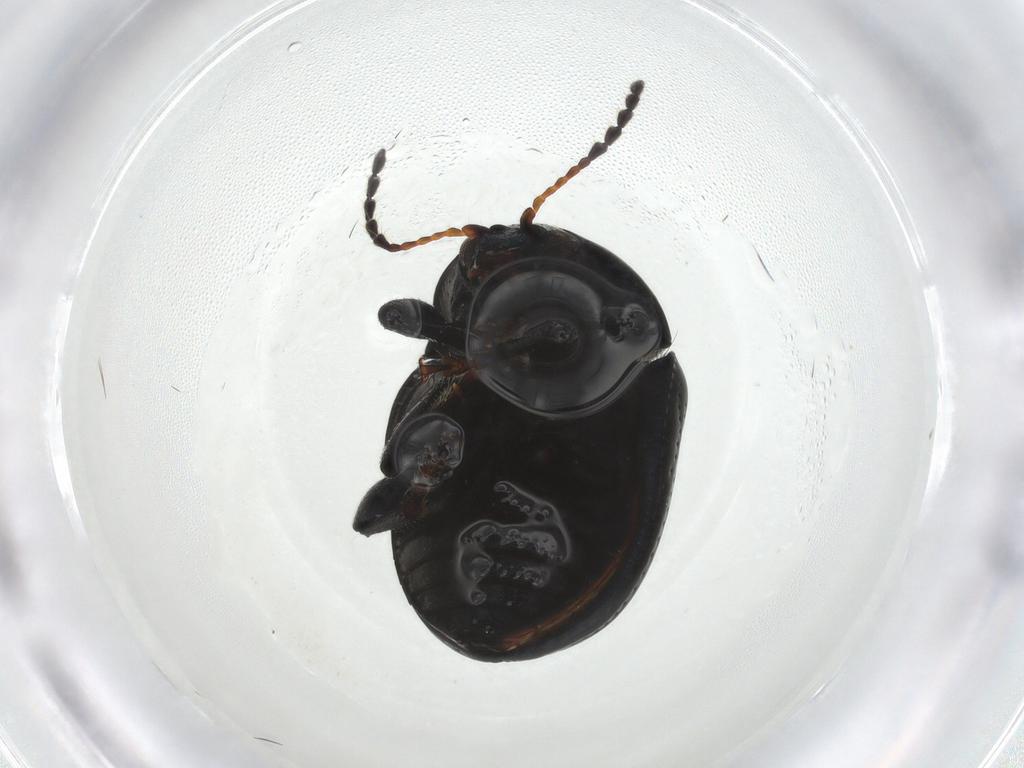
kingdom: Animalia
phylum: Arthropoda
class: Insecta
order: Coleoptera
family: Chrysomelidae
